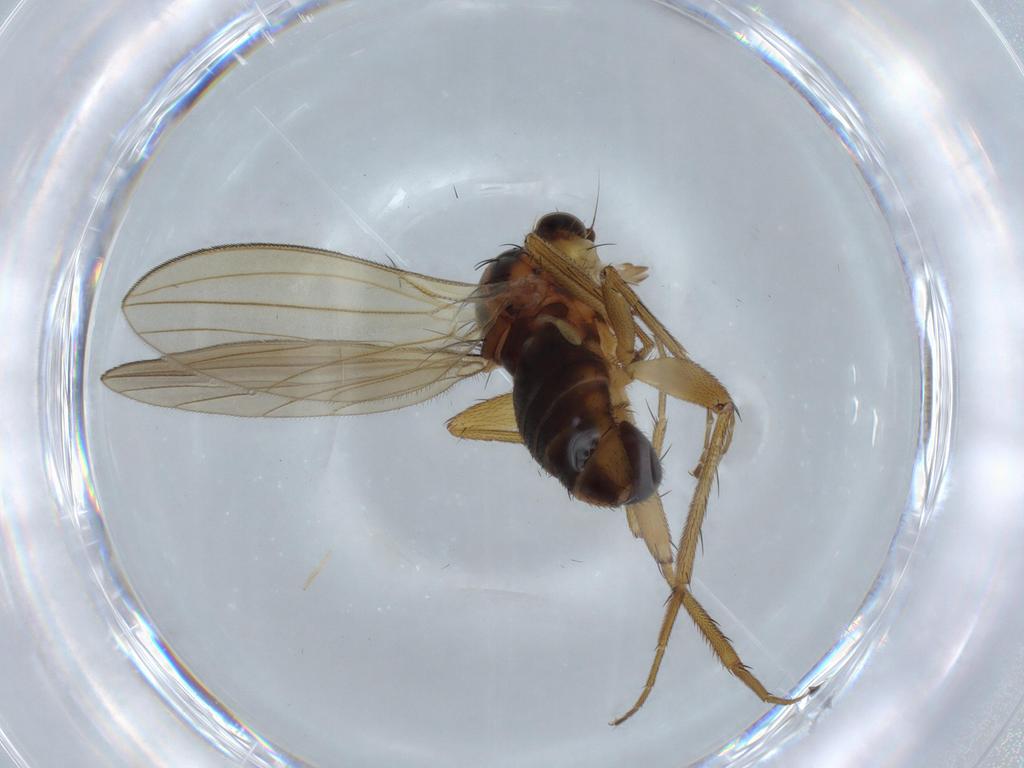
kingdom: Animalia
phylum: Arthropoda
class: Insecta
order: Diptera
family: Lonchopteridae
